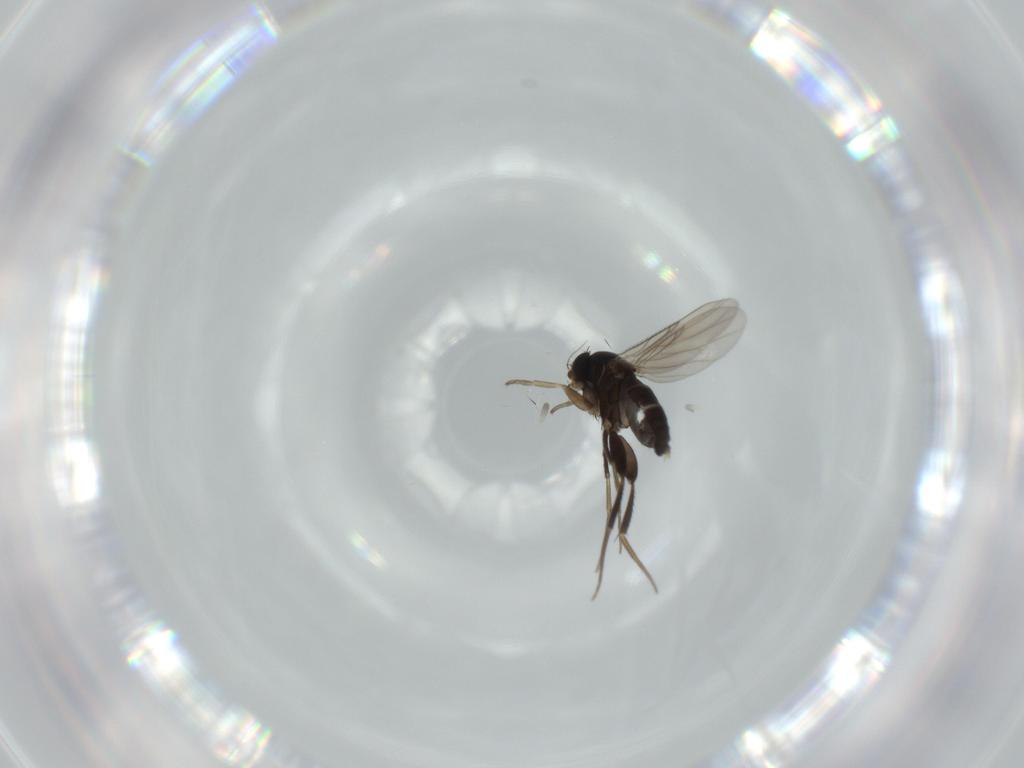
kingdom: Animalia
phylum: Arthropoda
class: Insecta
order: Diptera
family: Phoridae
